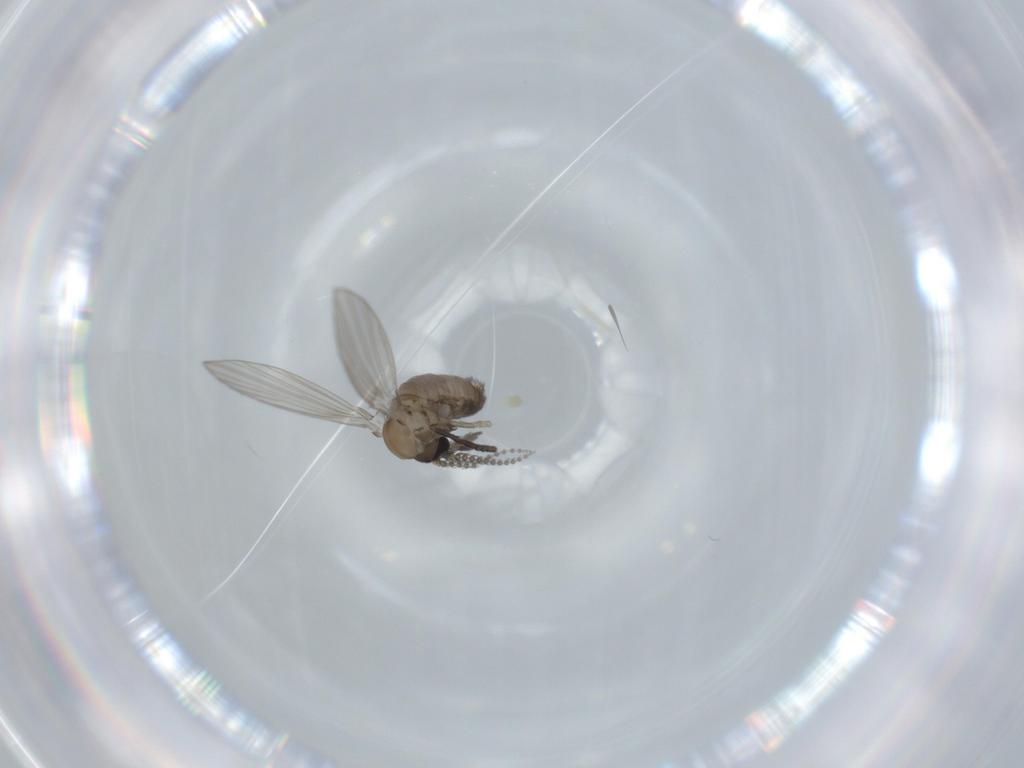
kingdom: Animalia
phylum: Arthropoda
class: Insecta
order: Diptera
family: Psychodidae
